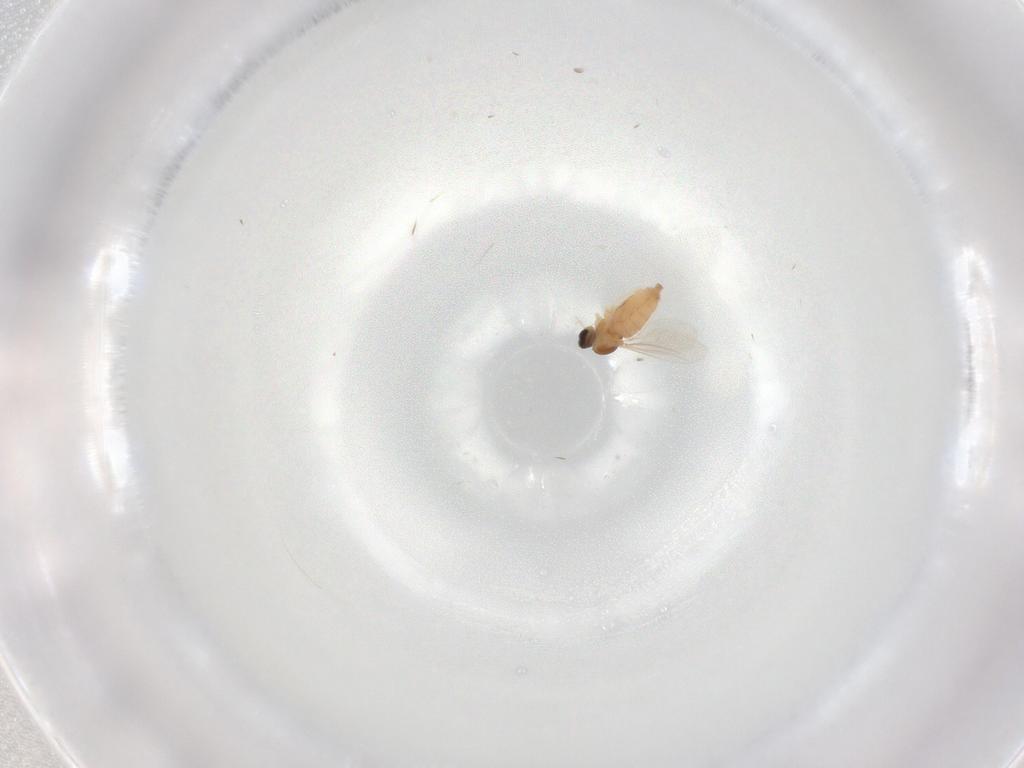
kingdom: Animalia
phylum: Arthropoda
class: Insecta
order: Diptera
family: Cecidomyiidae
